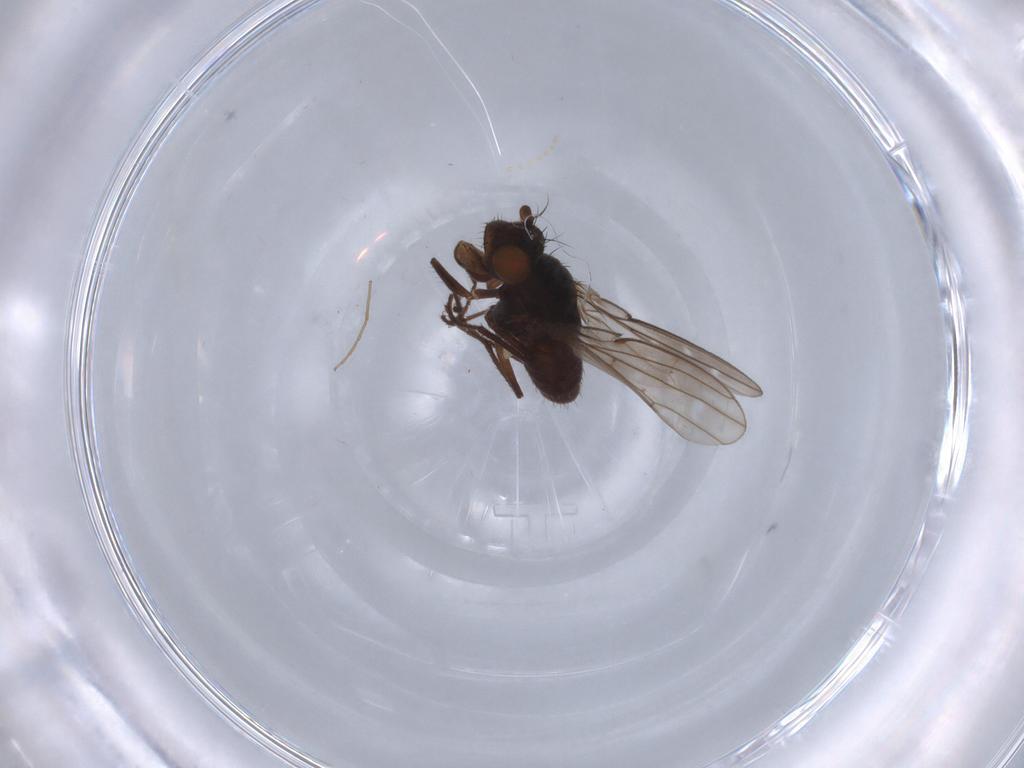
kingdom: Animalia
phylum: Arthropoda
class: Insecta
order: Diptera
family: Ephydridae
